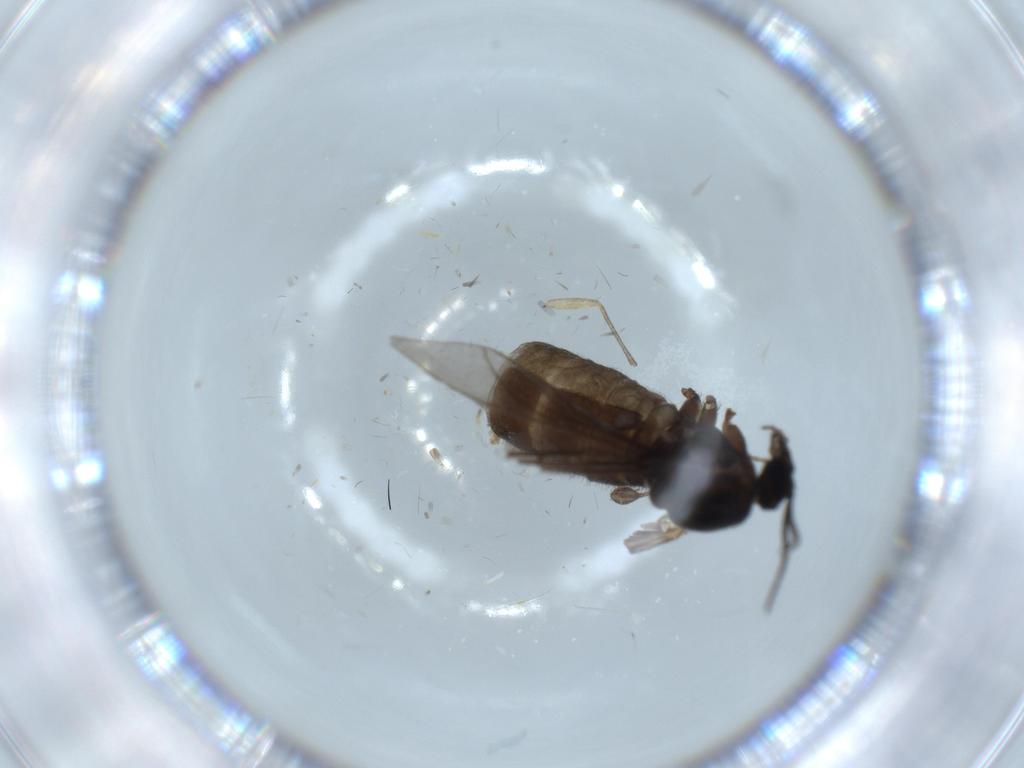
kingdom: Animalia
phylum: Arthropoda
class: Insecta
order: Diptera
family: Sciaridae
